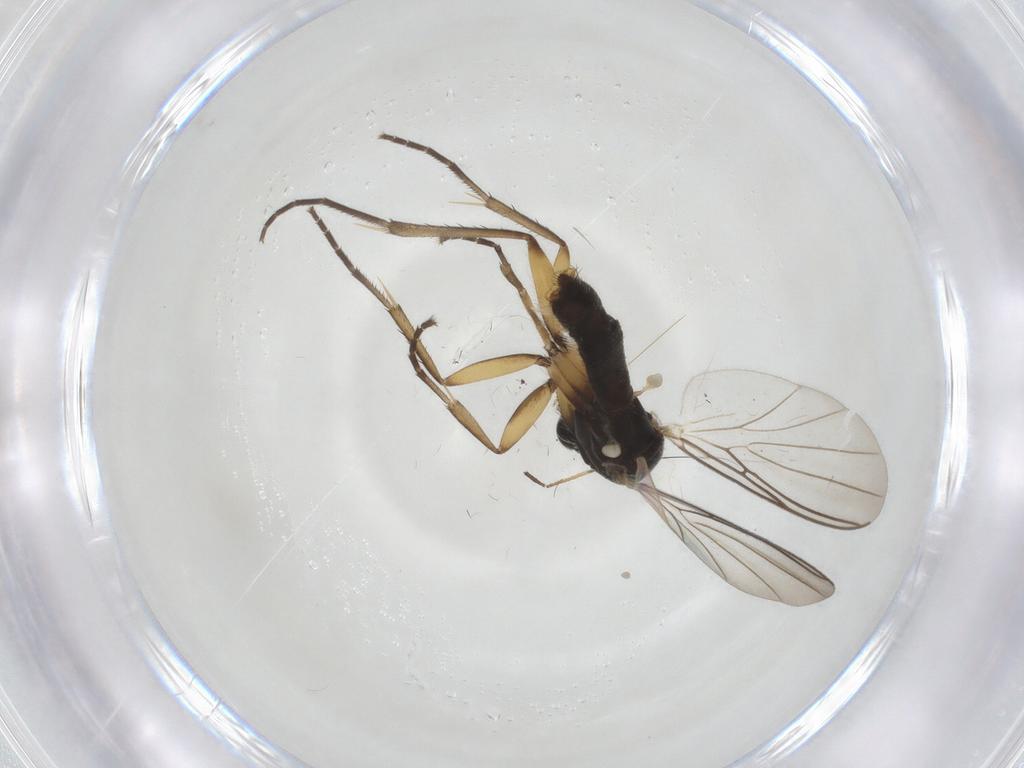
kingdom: Animalia
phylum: Arthropoda
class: Insecta
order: Diptera
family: Mycetophilidae
